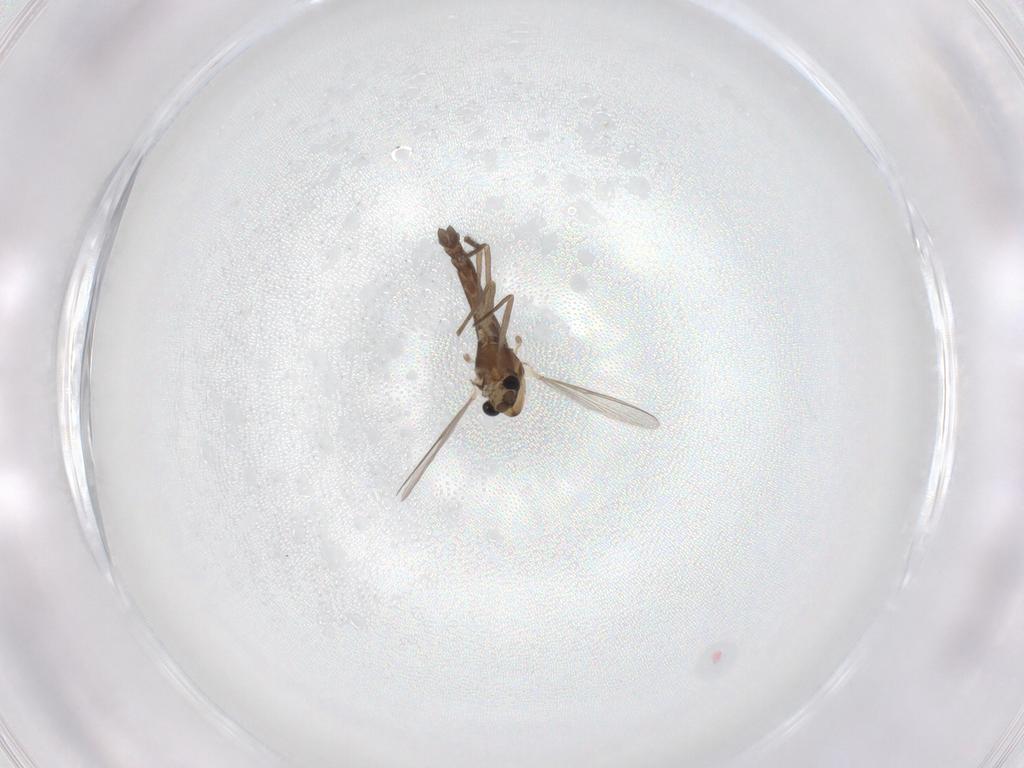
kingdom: Animalia
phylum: Arthropoda
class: Insecta
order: Diptera
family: Chironomidae
